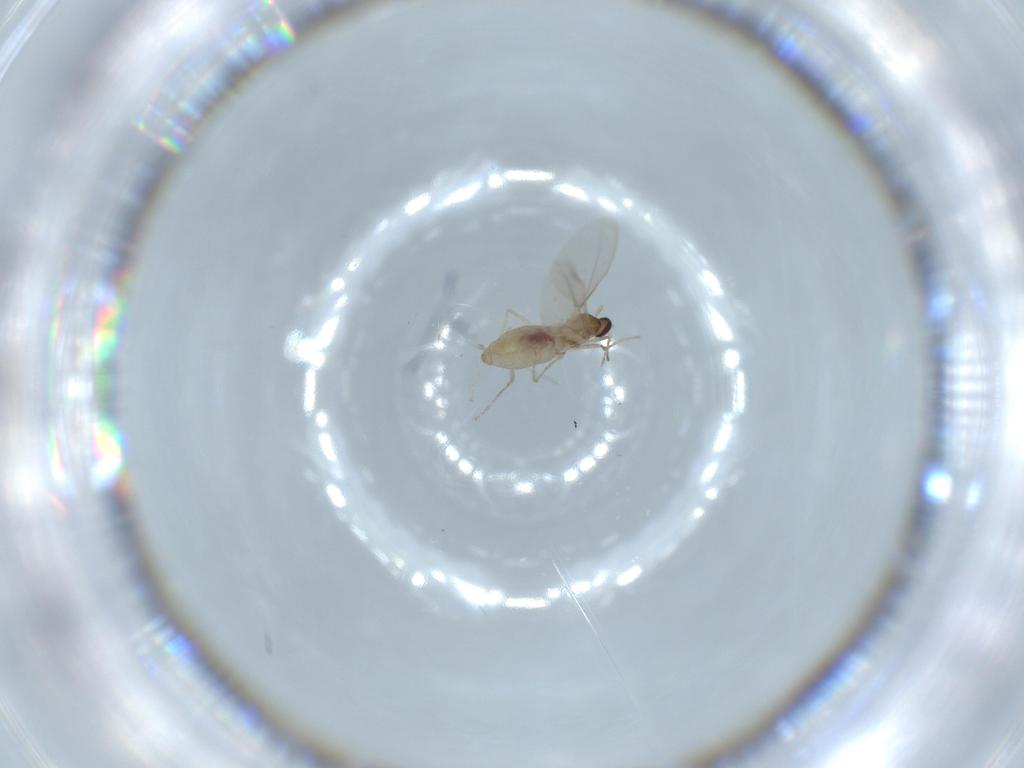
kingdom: Animalia
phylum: Arthropoda
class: Insecta
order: Diptera
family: Cecidomyiidae
